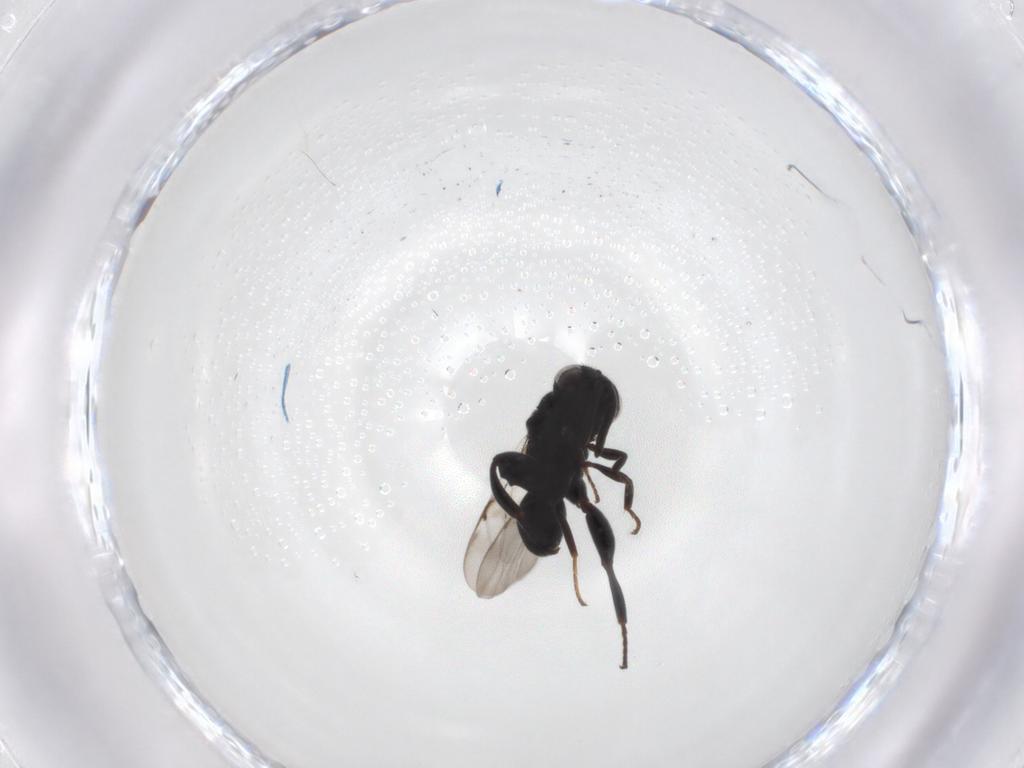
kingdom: Animalia
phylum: Arthropoda
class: Insecta
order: Hymenoptera
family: Chalcididae
